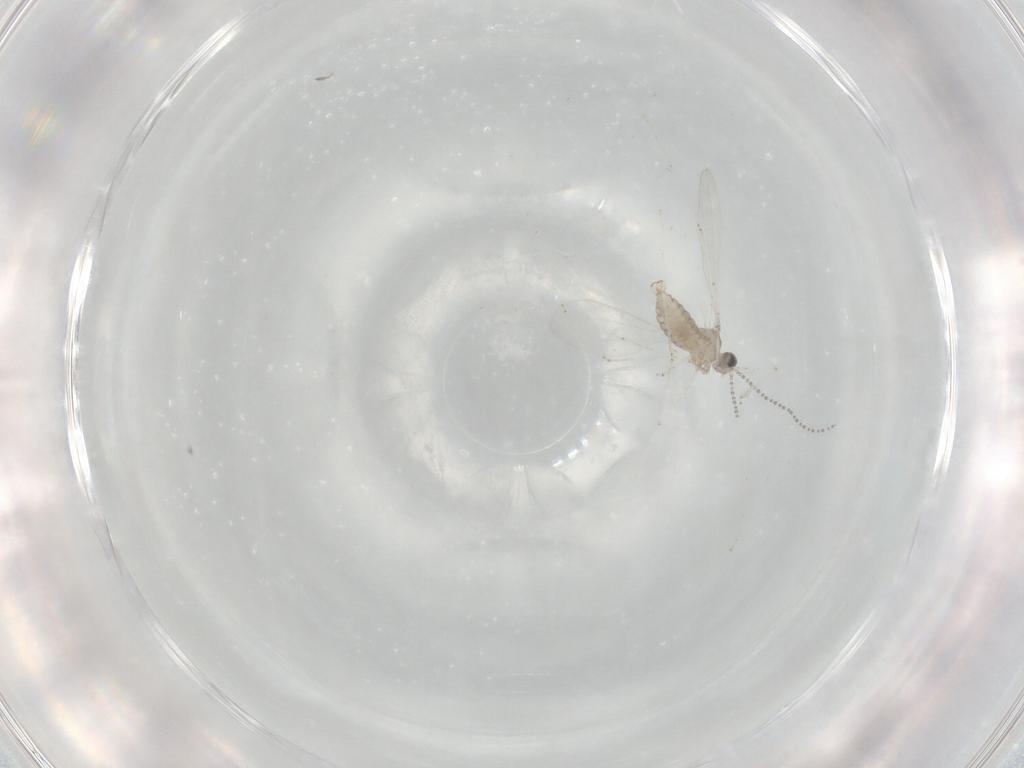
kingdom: Animalia
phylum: Arthropoda
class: Insecta
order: Diptera
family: Cecidomyiidae
